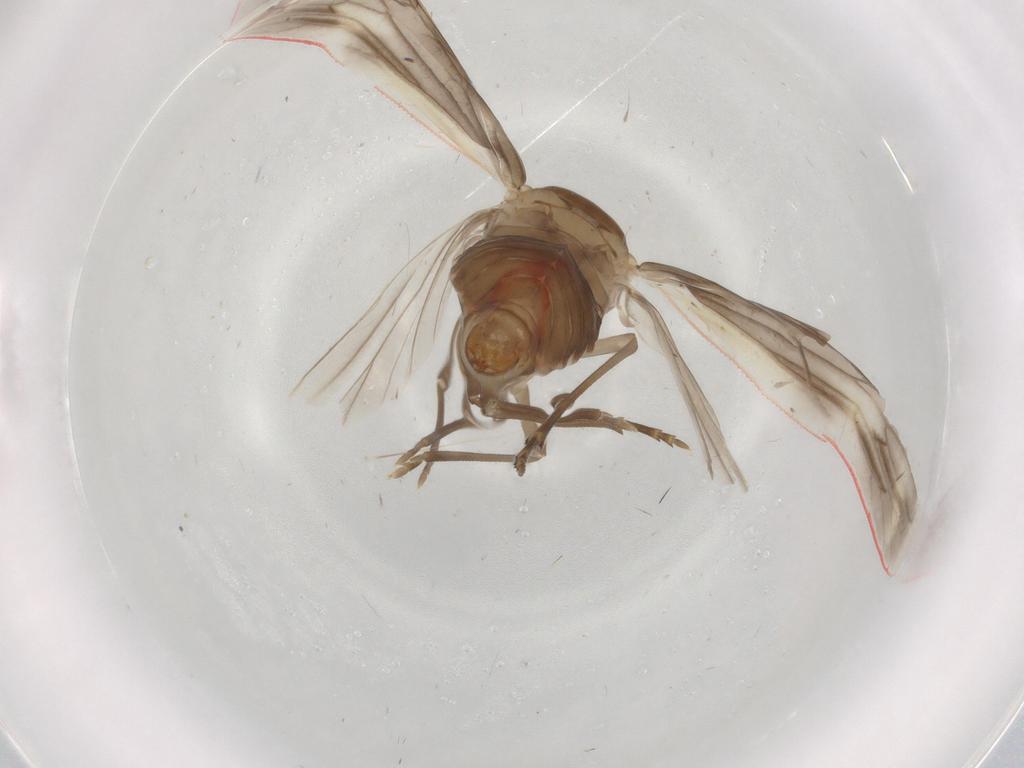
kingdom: Animalia
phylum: Arthropoda
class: Insecta
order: Hemiptera
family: Derbidae
